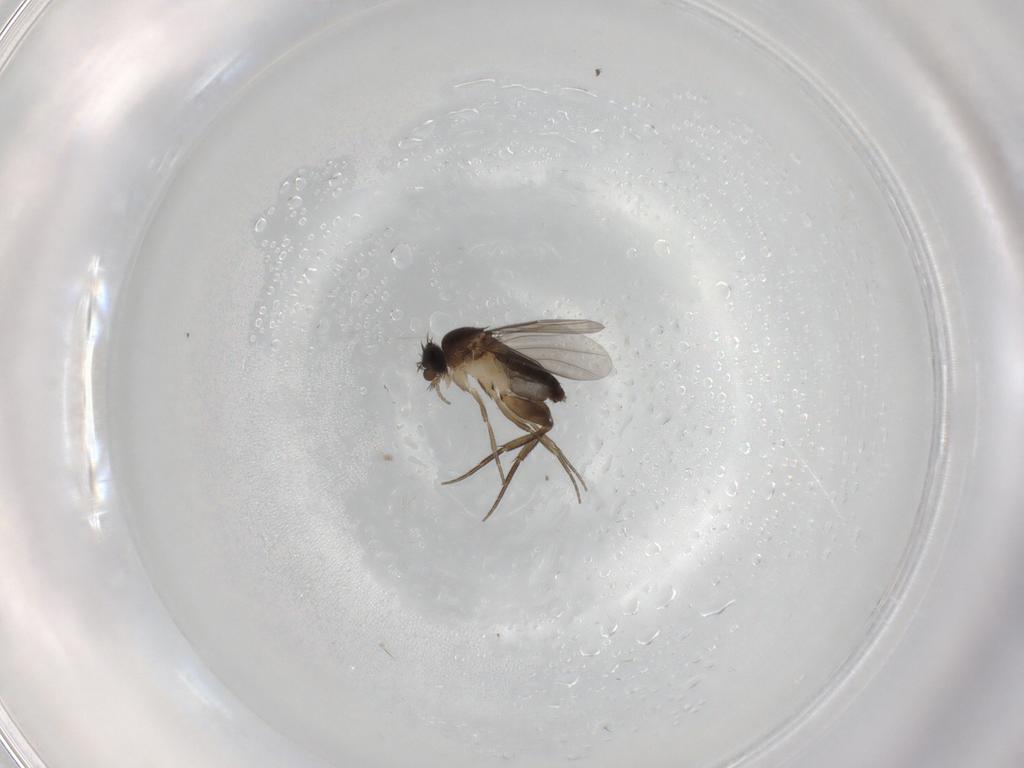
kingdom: Animalia
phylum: Arthropoda
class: Insecta
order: Diptera
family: Phoridae
